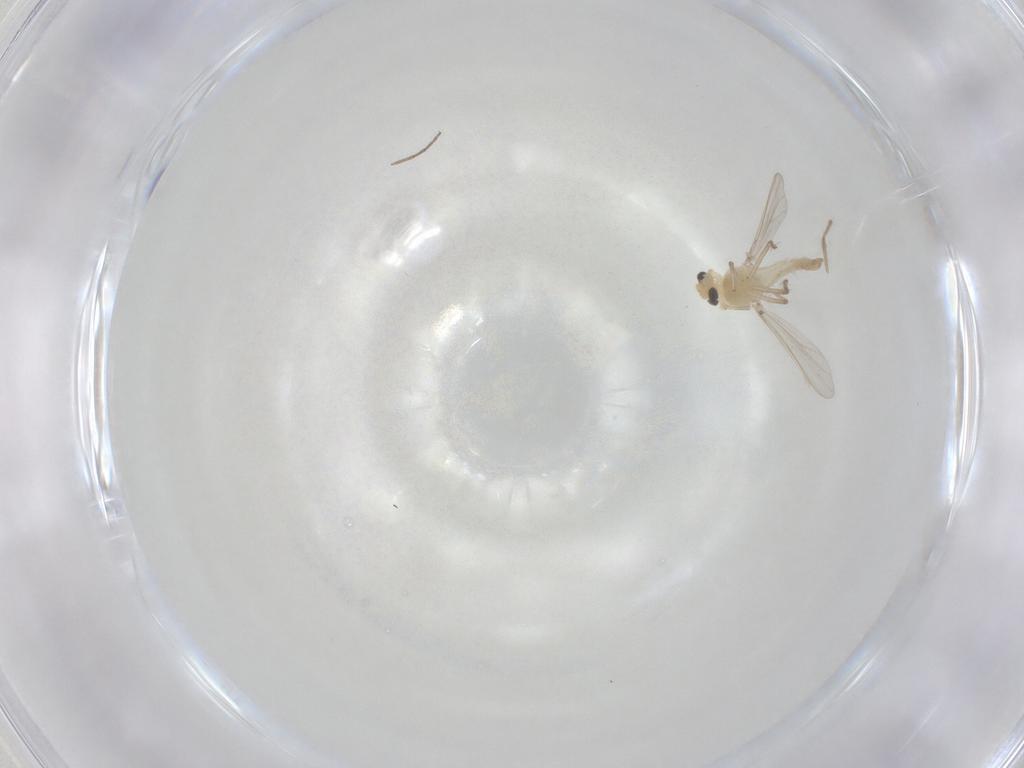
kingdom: Animalia
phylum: Arthropoda
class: Insecta
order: Diptera
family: Chironomidae
